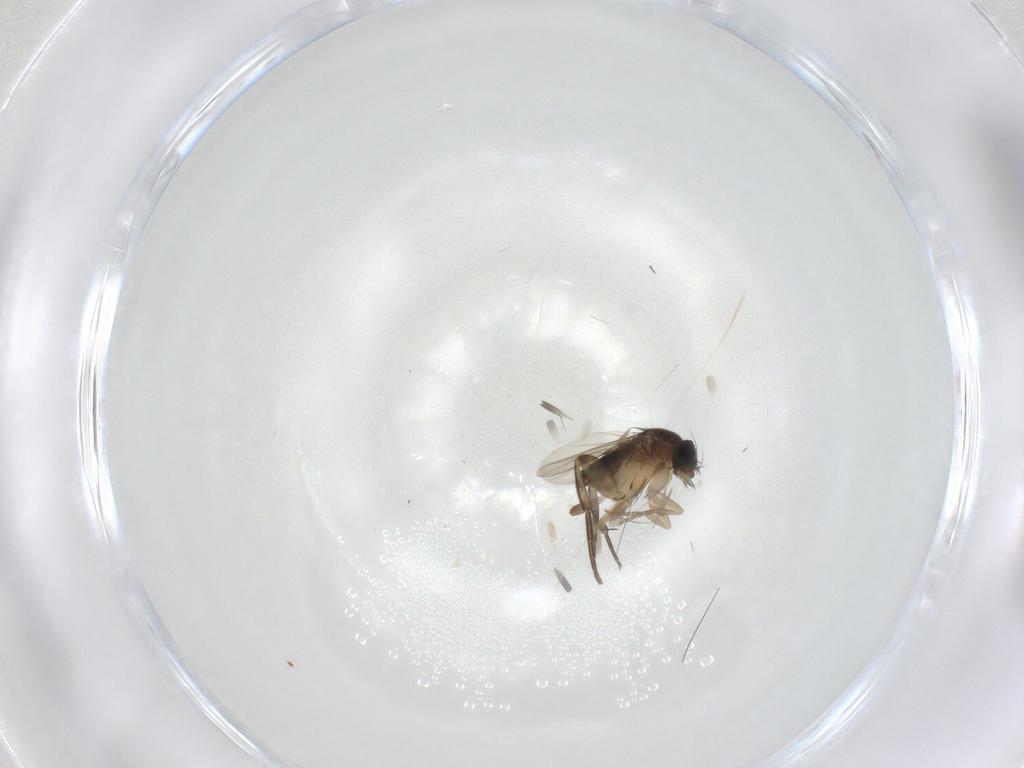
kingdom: Animalia
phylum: Arthropoda
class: Insecta
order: Diptera
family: Phoridae
